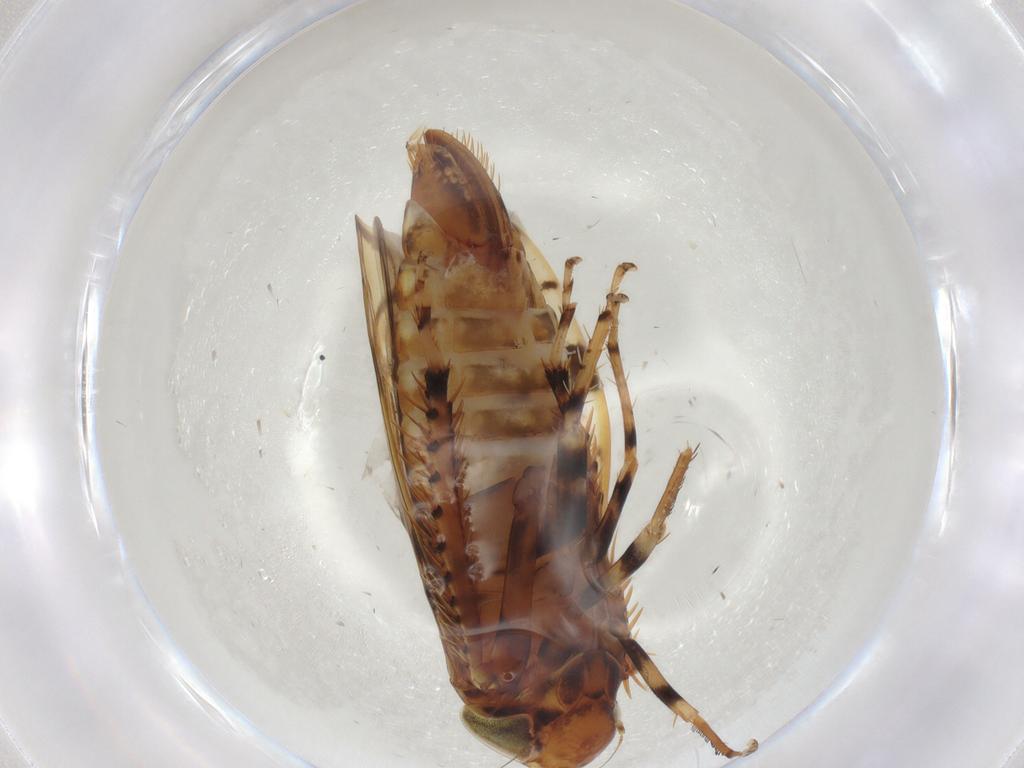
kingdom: Animalia
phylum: Arthropoda
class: Insecta
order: Hemiptera
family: Cicadellidae
